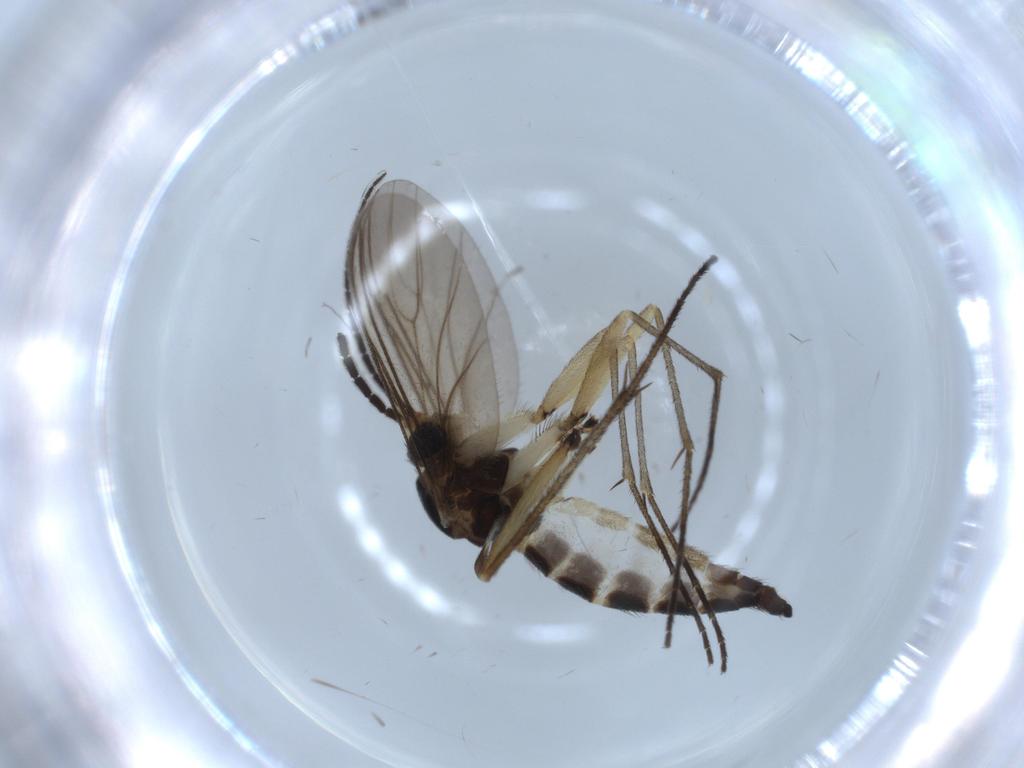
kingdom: Animalia
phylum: Arthropoda
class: Insecta
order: Diptera
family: Sciaridae
